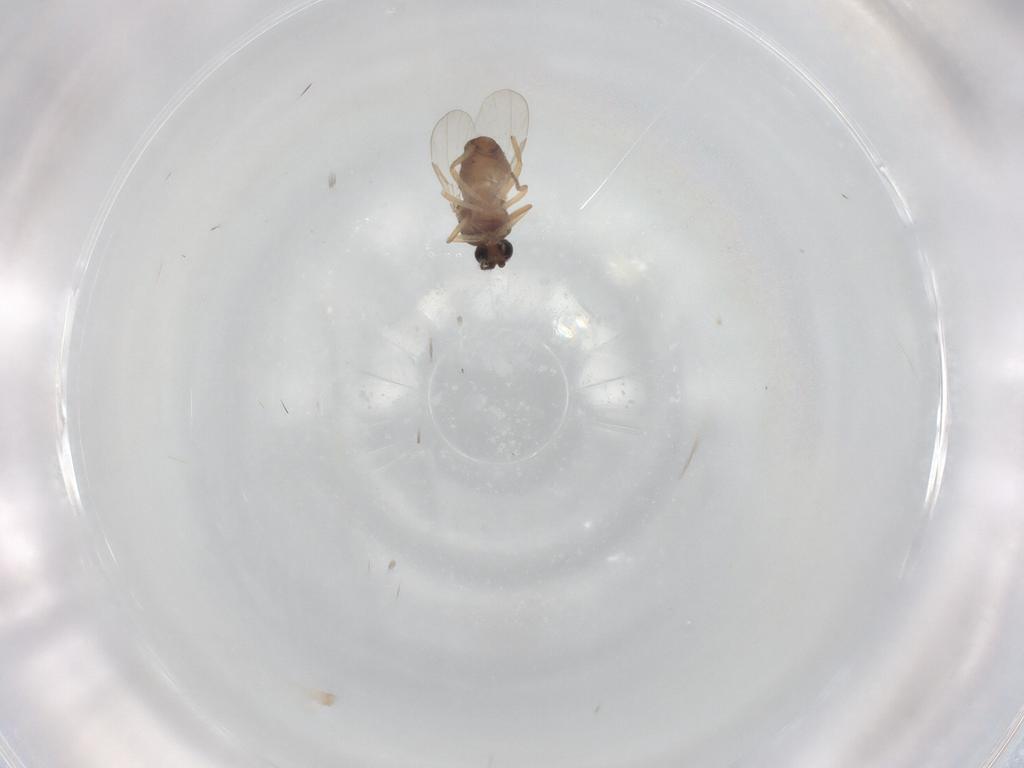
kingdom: Animalia
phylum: Arthropoda
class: Insecta
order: Diptera
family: Ceratopogonidae
